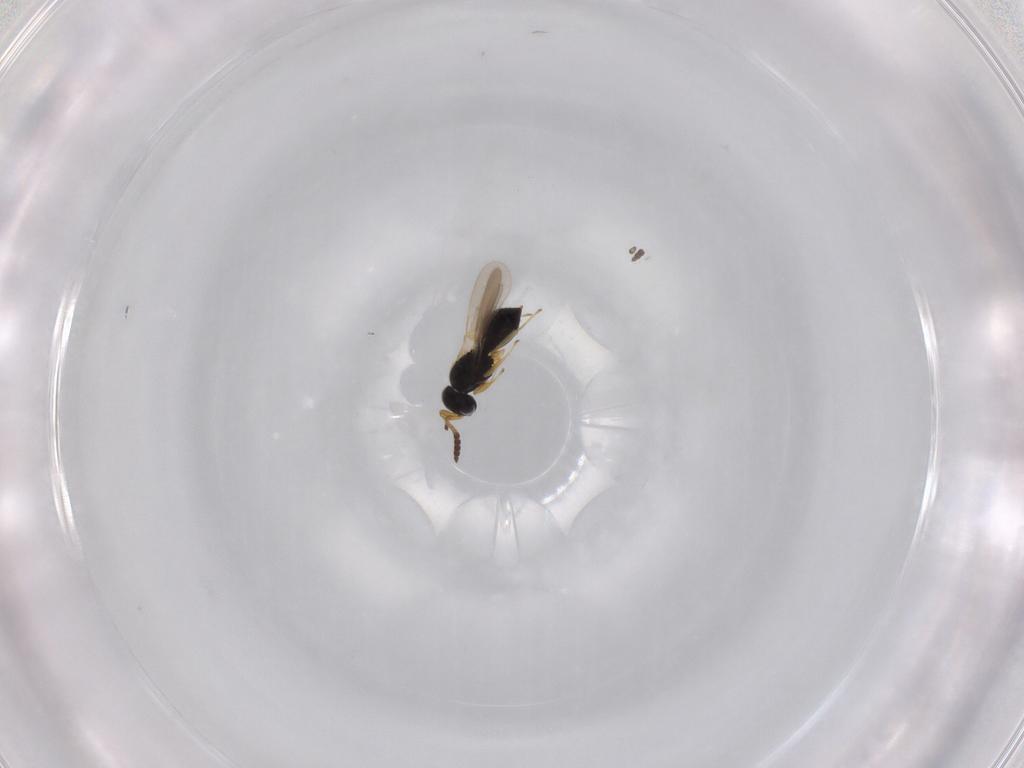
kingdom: Animalia
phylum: Arthropoda
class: Insecta
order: Hymenoptera
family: Scelionidae
